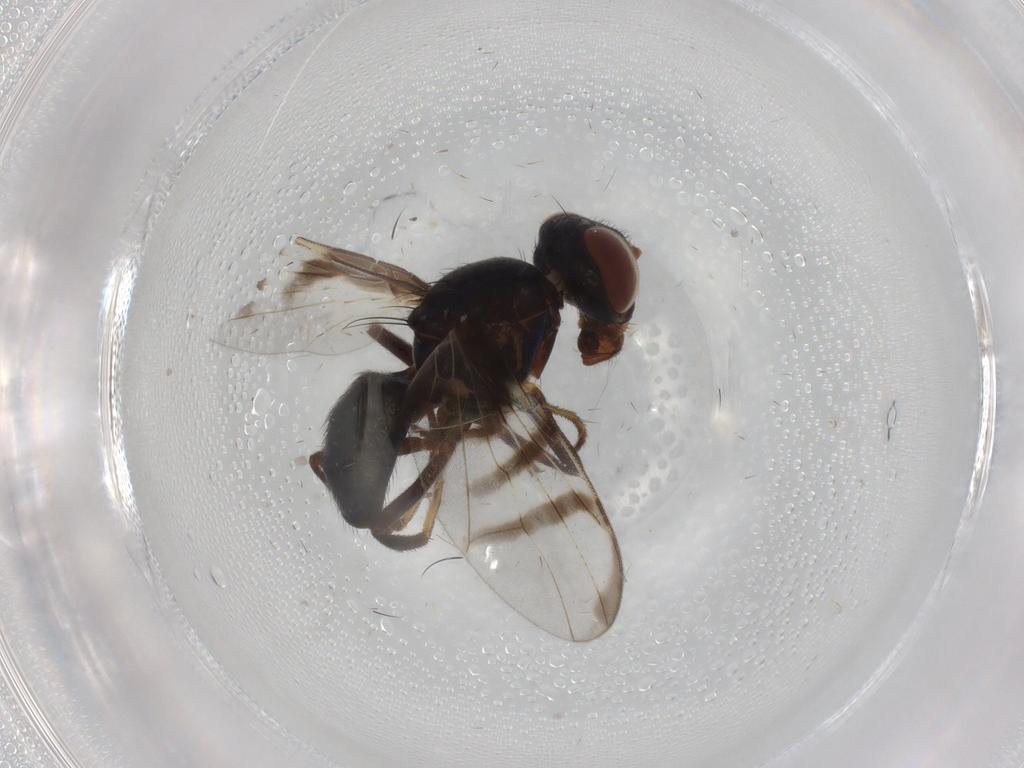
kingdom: Animalia
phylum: Arthropoda
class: Insecta
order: Diptera
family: Platystomatidae
